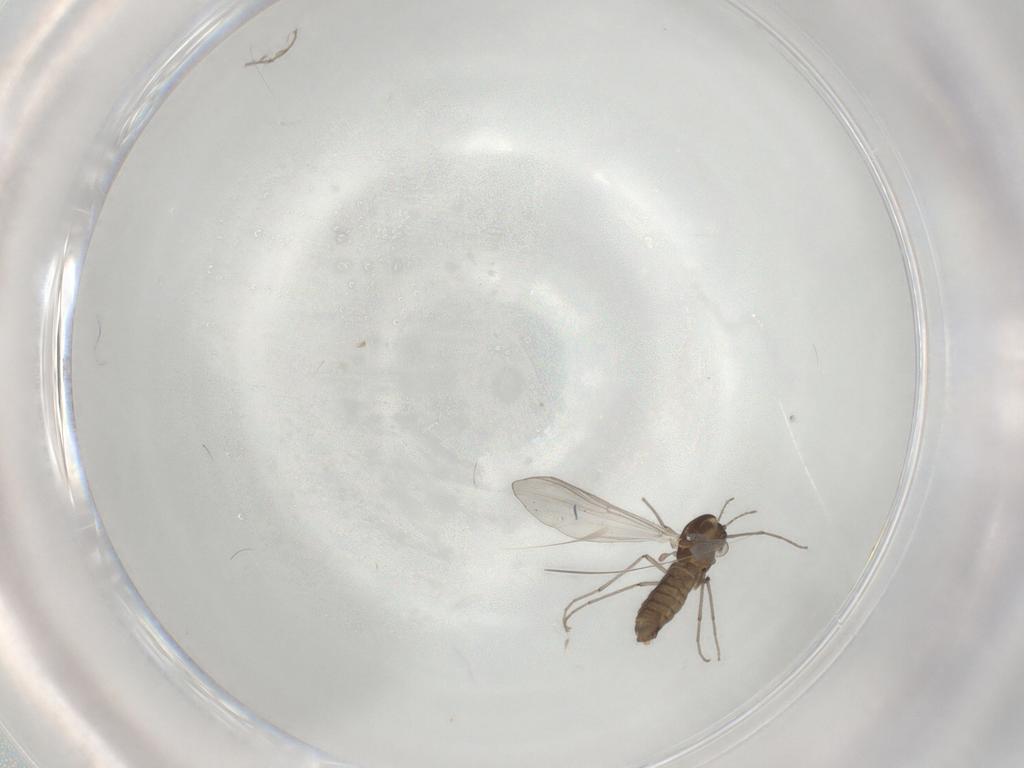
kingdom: Animalia
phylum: Arthropoda
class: Insecta
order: Diptera
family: Chironomidae
